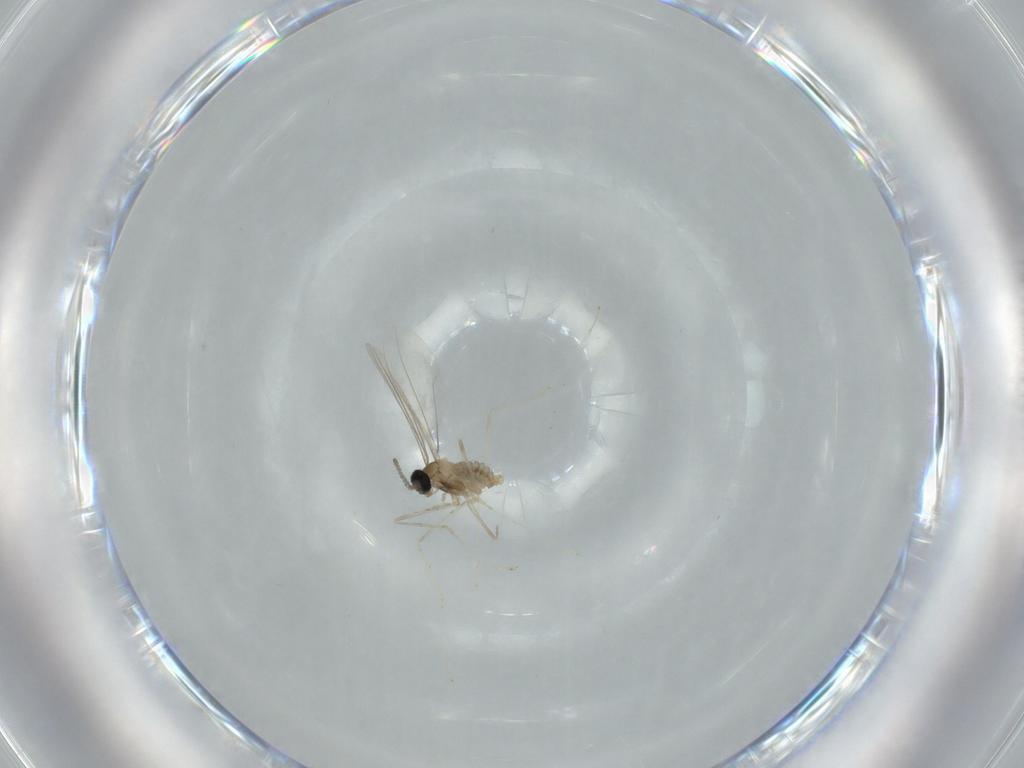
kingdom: Animalia
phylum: Arthropoda
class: Insecta
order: Diptera
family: Cecidomyiidae
